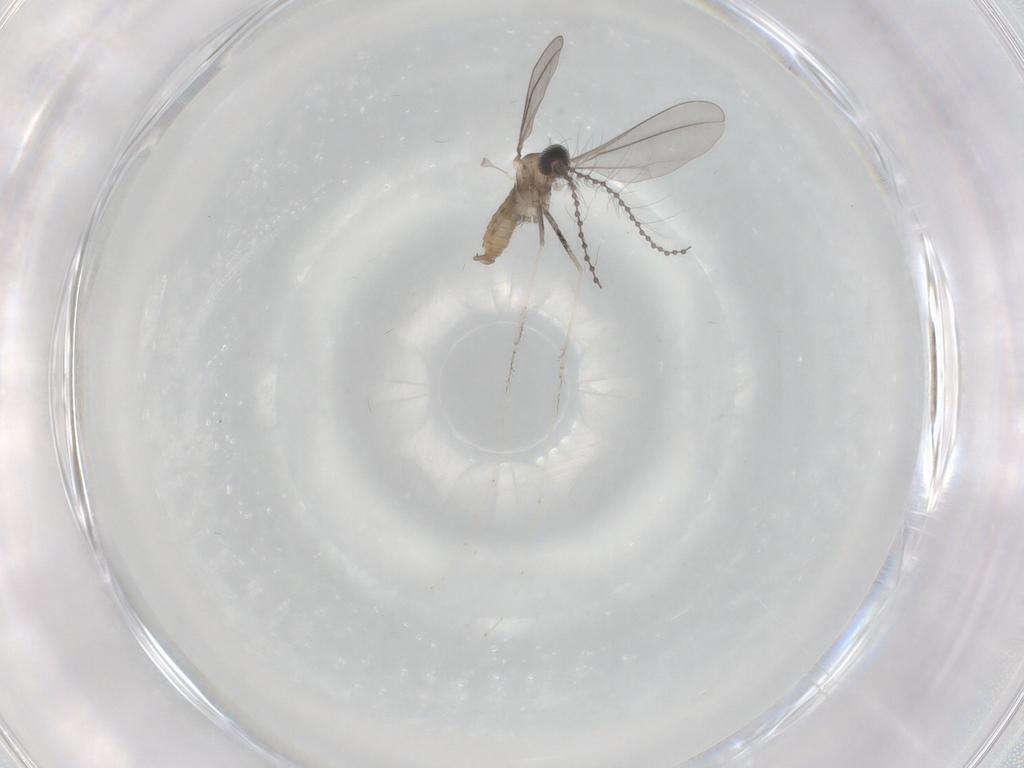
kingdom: Animalia
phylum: Arthropoda
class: Insecta
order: Diptera
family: Cecidomyiidae
